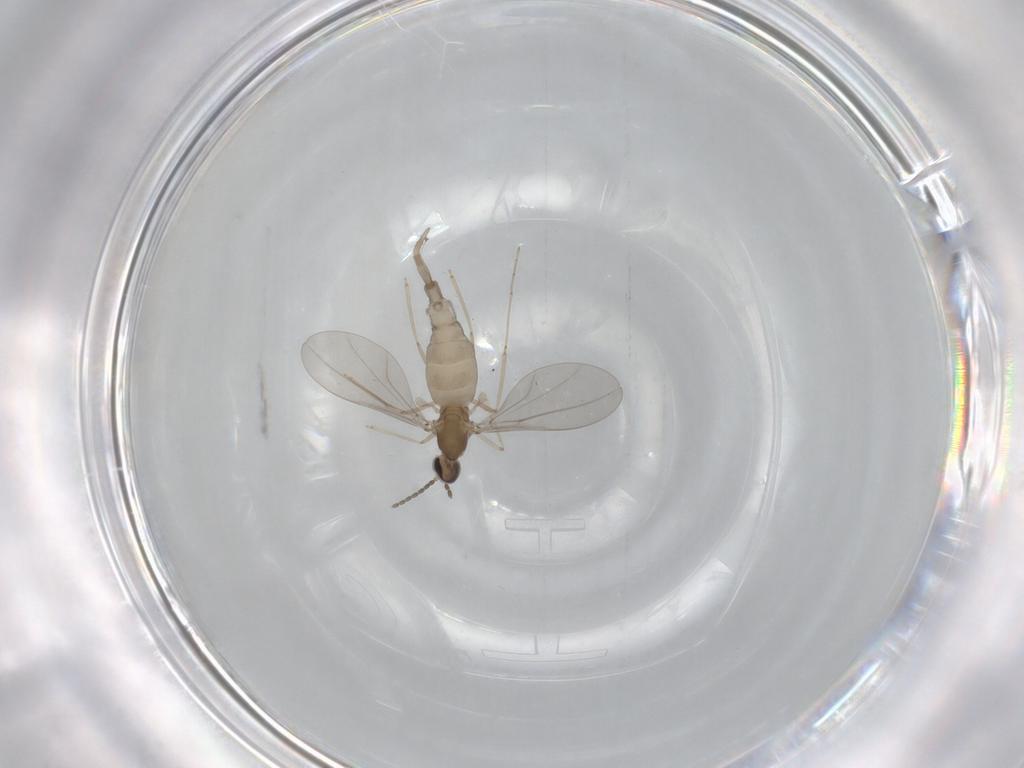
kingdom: Animalia
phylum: Arthropoda
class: Insecta
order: Diptera
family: Cecidomyiidae
